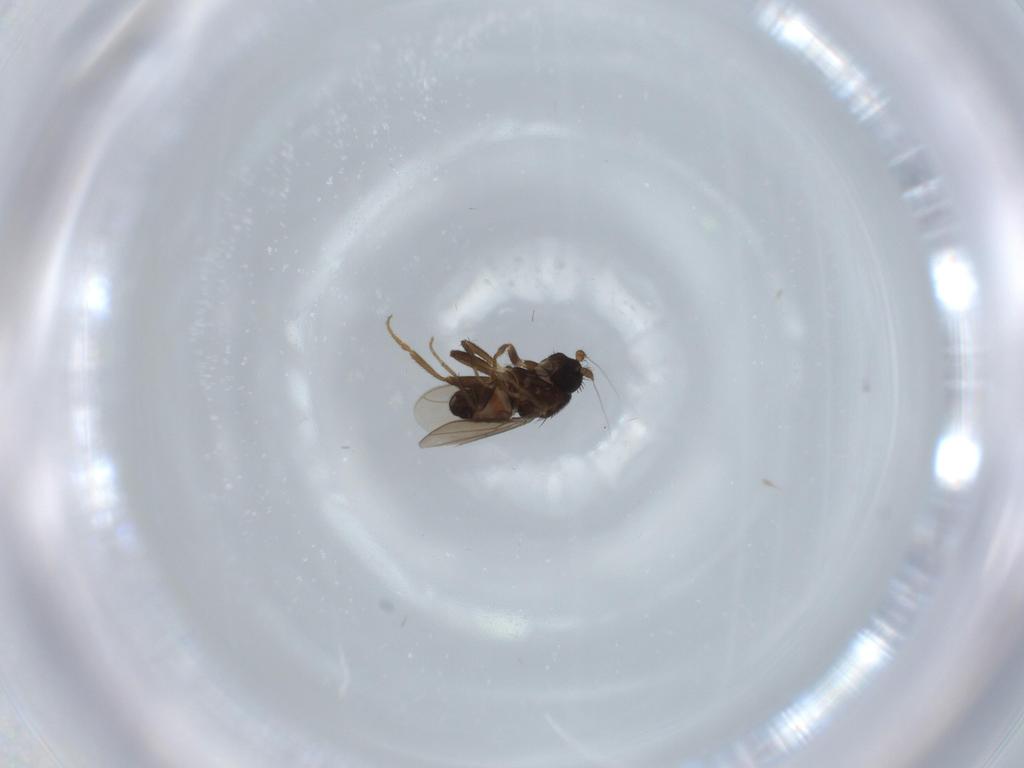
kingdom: Animalia
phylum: Arthropoda
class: Insecta
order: Diptera
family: Sphaeroceridae
